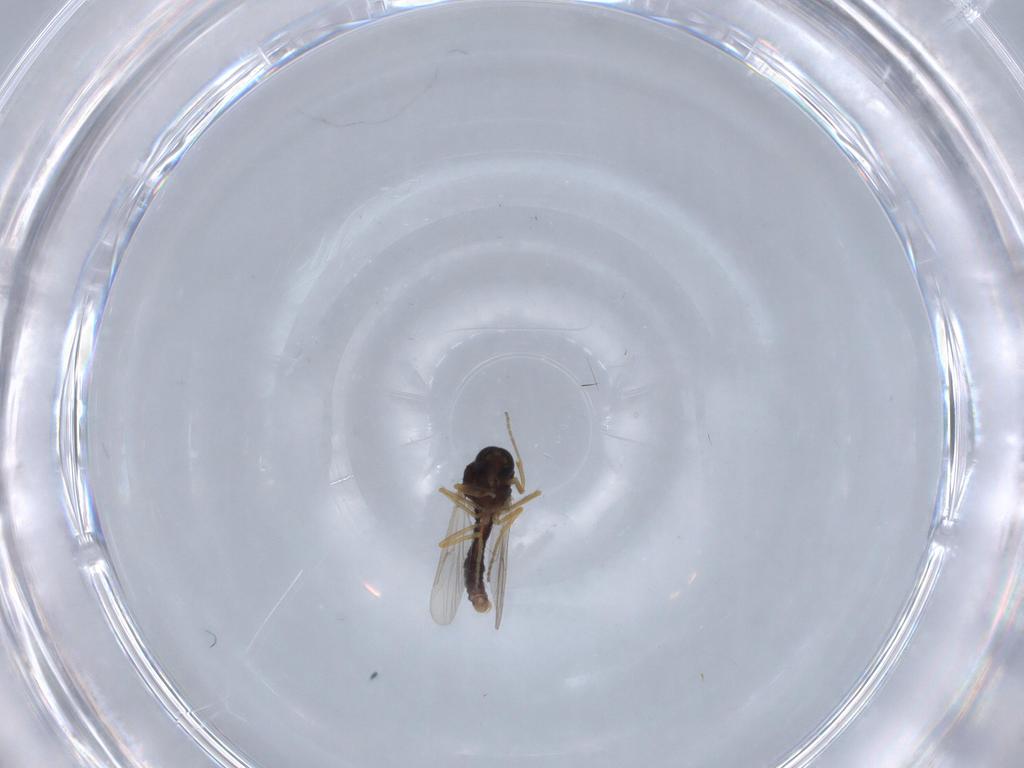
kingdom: Animalia
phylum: Arthropoda
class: Insecta
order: Diptera
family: Ceratopogonidae
